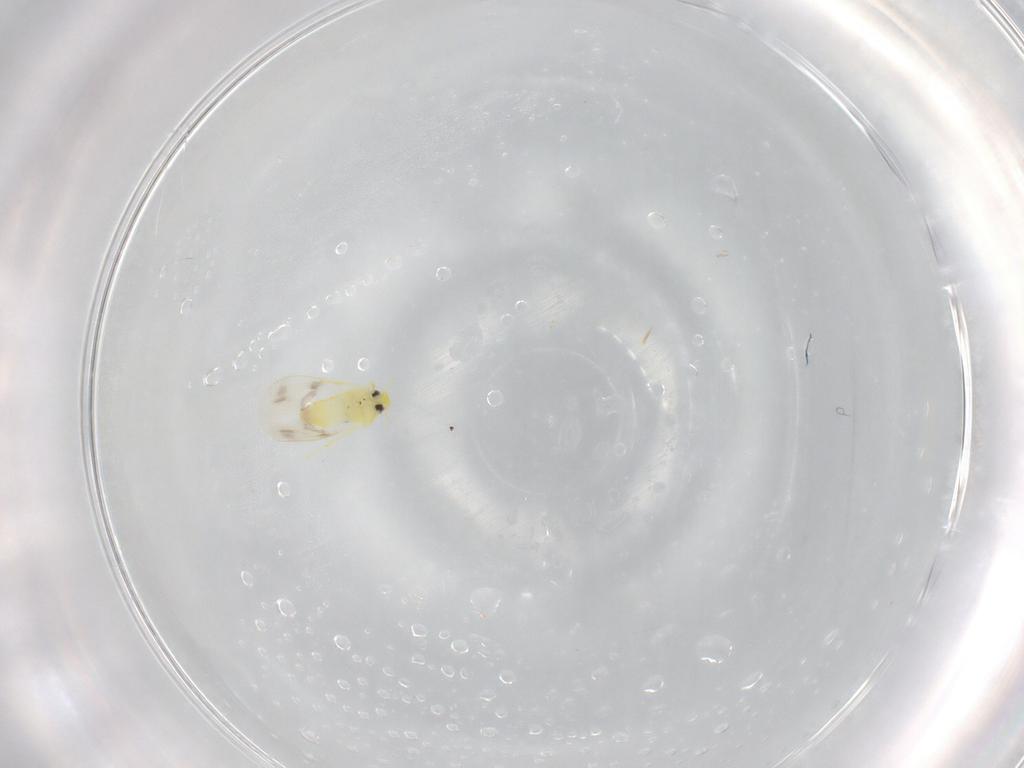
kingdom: Animalia
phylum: Arthropoda
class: Insecta
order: Hemiptera
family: Aleyrodidae
